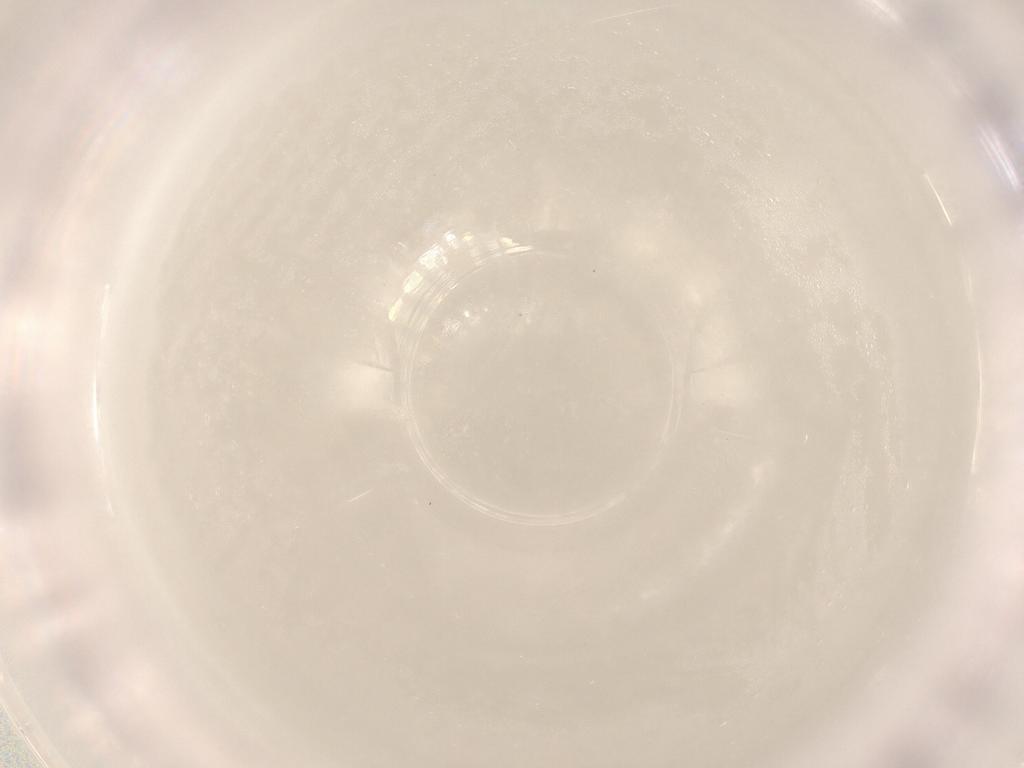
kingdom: Animalia
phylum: Arthropoda
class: Collembola
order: Entomobryomorpha
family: Entomobryidae
